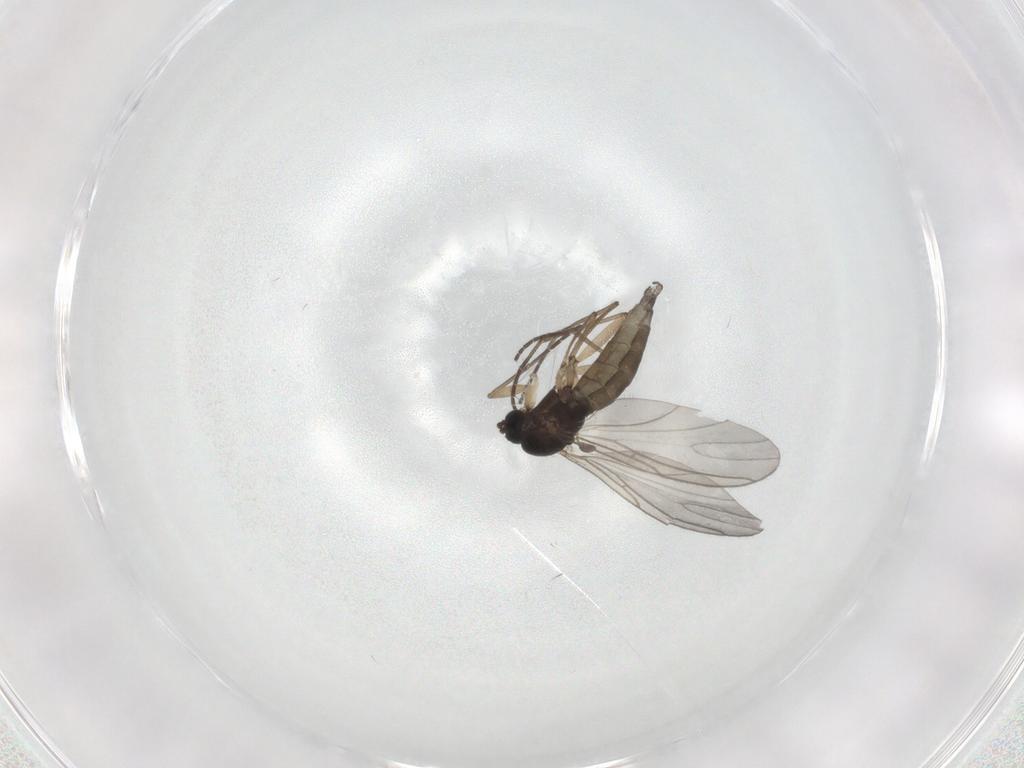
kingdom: Animalia
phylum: Arthropoda
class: Insecta
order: Diptera
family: Sciaridae
